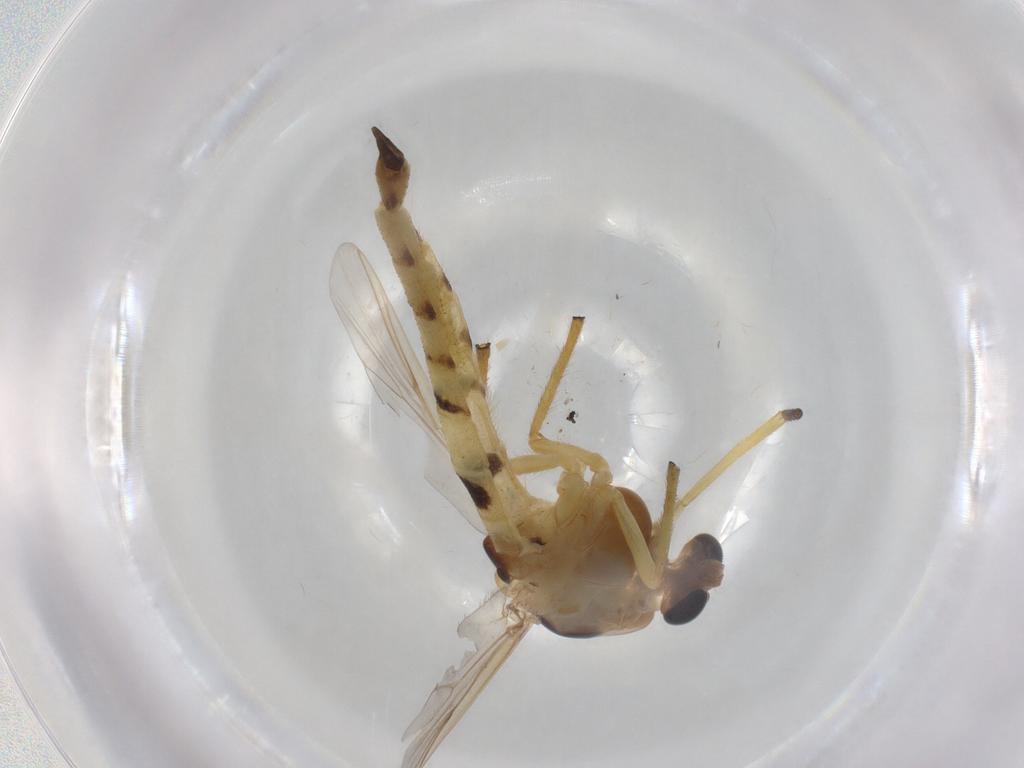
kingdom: Animalia
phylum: Arthropoda
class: Insecta
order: Diptera
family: Chironomidae
